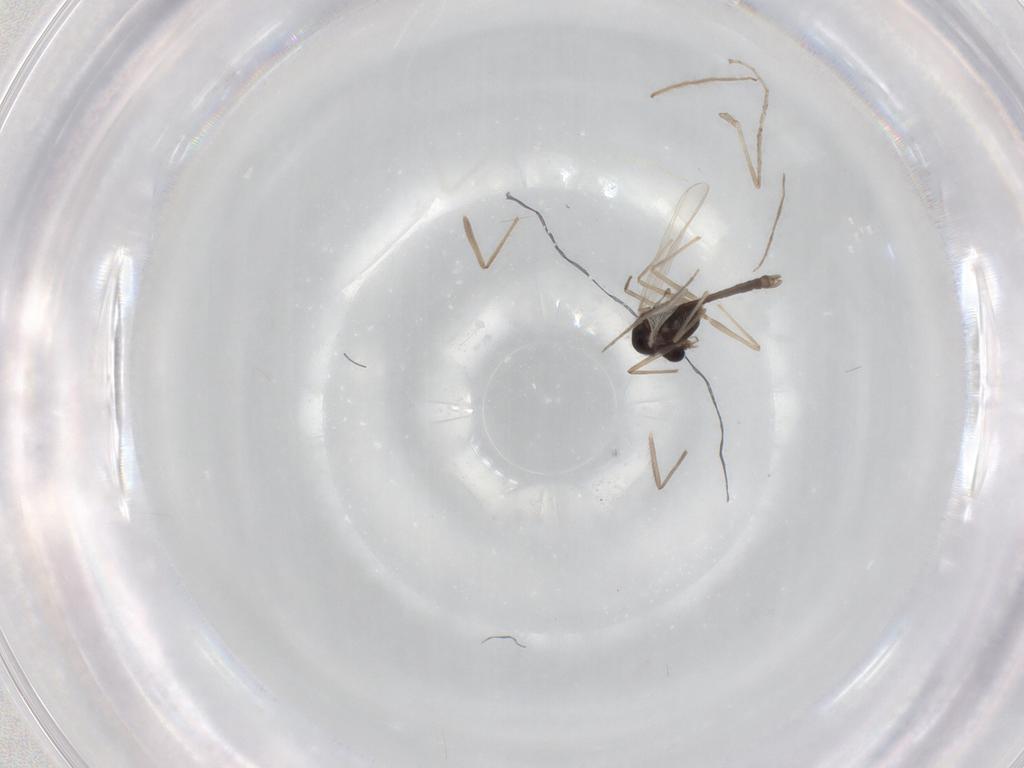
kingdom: Animalia
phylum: Arthropoda
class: Insecta
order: Diptera
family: Chironomidae
